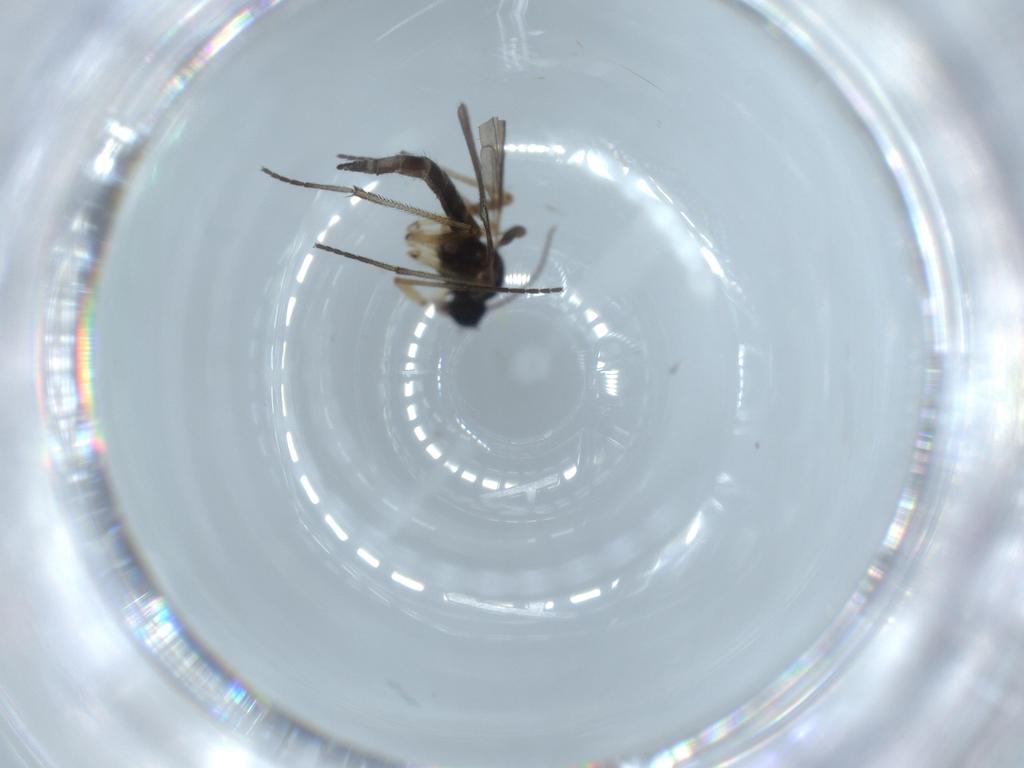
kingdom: Animalia
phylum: Arthropoda
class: Insecta
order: Diptera
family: Sciaridae
